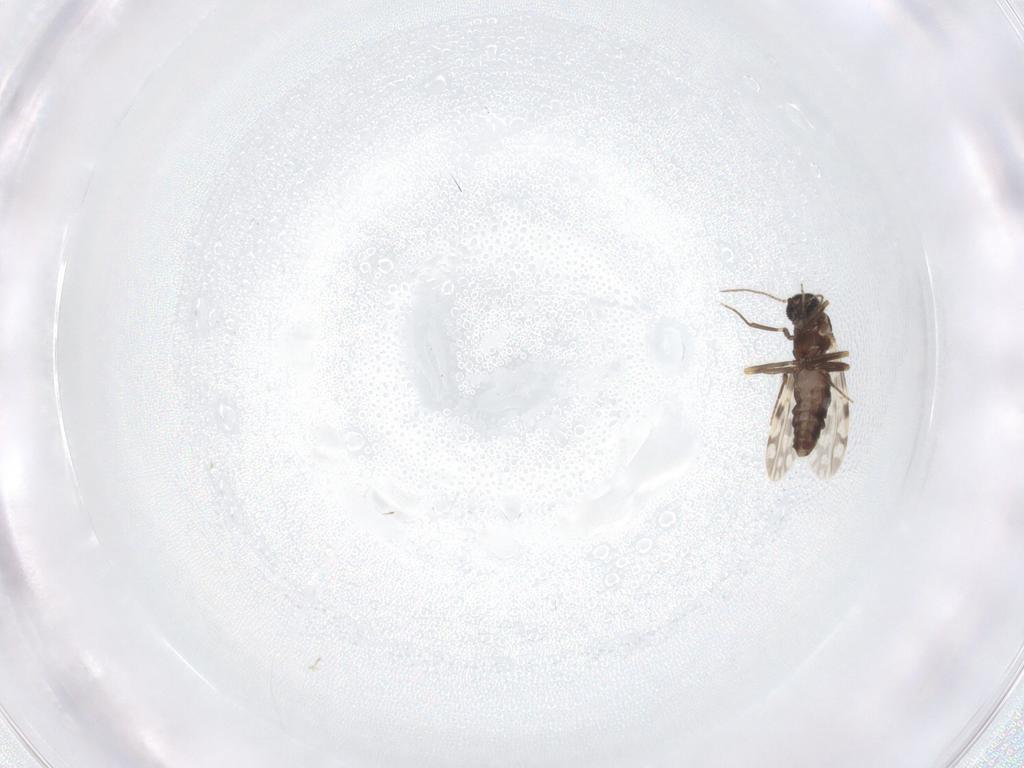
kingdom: Animalia
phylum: Arthropoda
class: Insecta
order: Diptera
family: Ceratopogonidae
